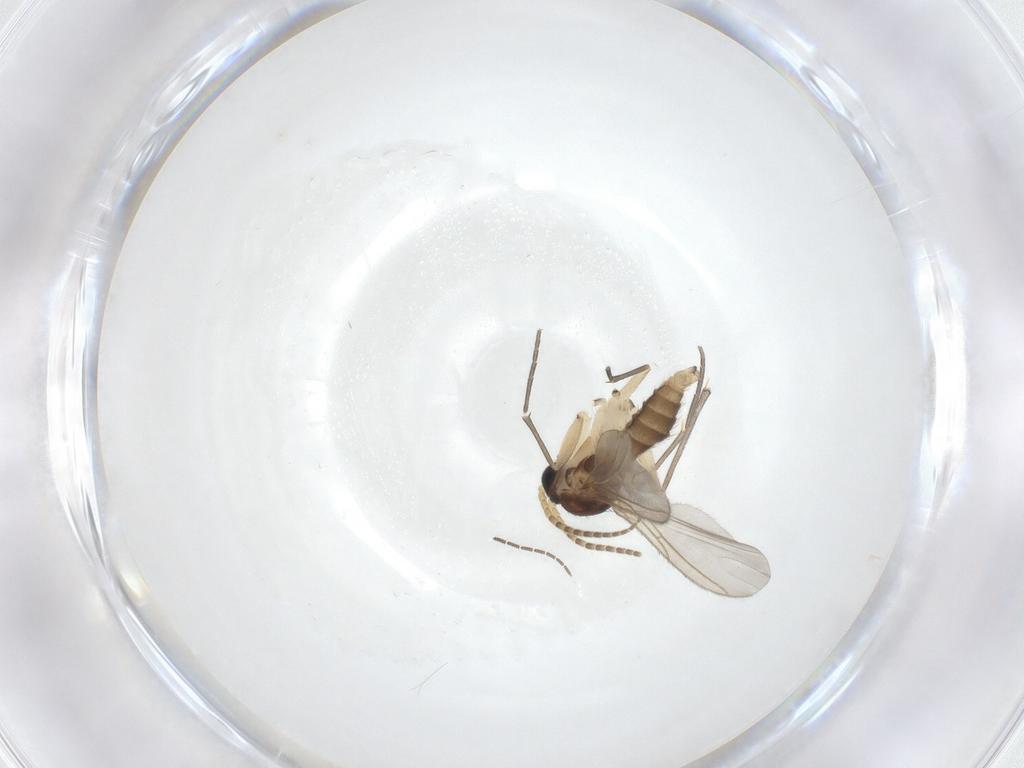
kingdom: Animalia
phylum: Arthropoda
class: Insecta
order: Diptera
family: Sciaridae
